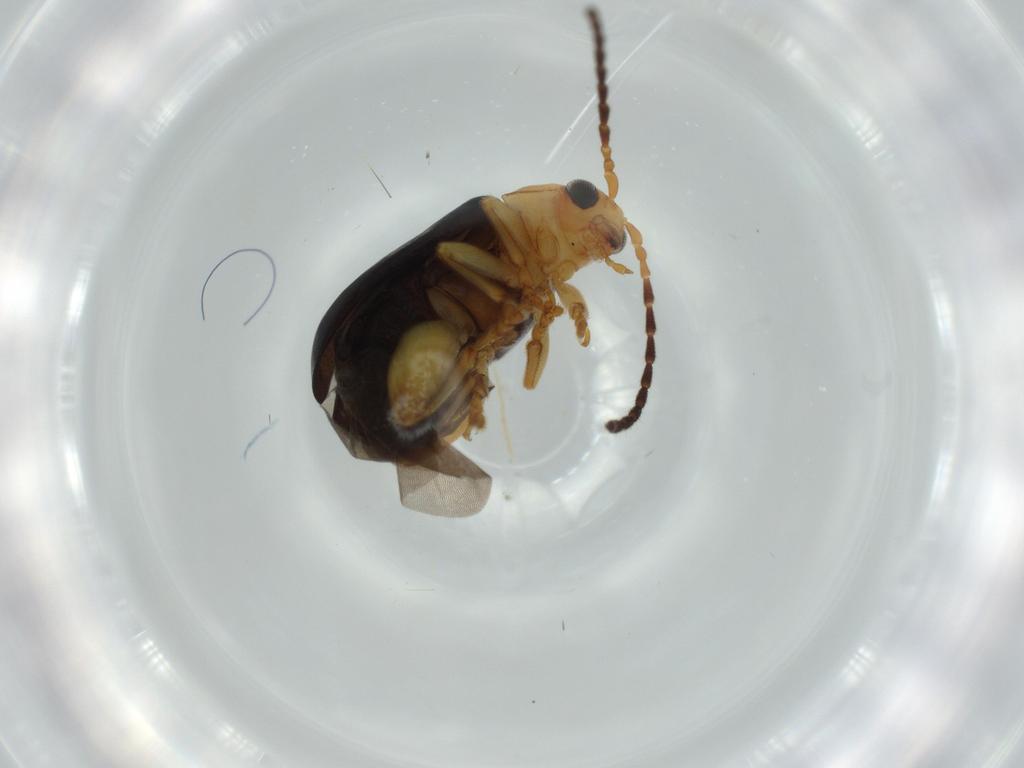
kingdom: Animalia
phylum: Arthropoda
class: Insecta
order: Coleoptera
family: Chrysomelidae
